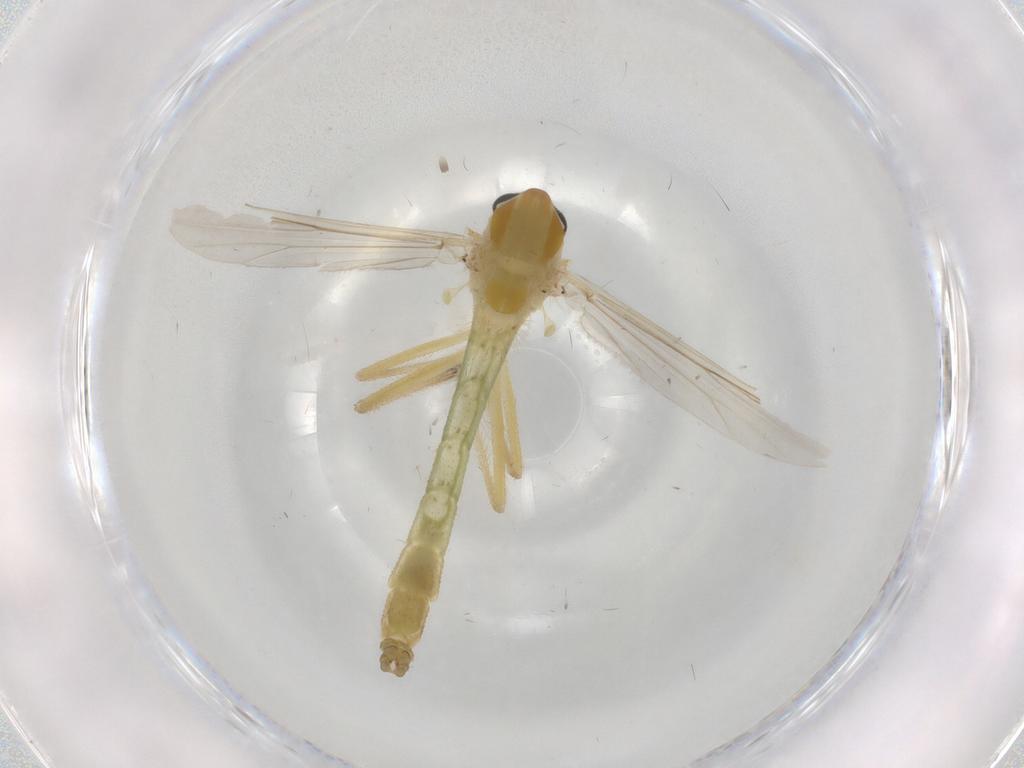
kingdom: Animalia
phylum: Arthropoda
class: Insecta
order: Diptera
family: Chironomidae
